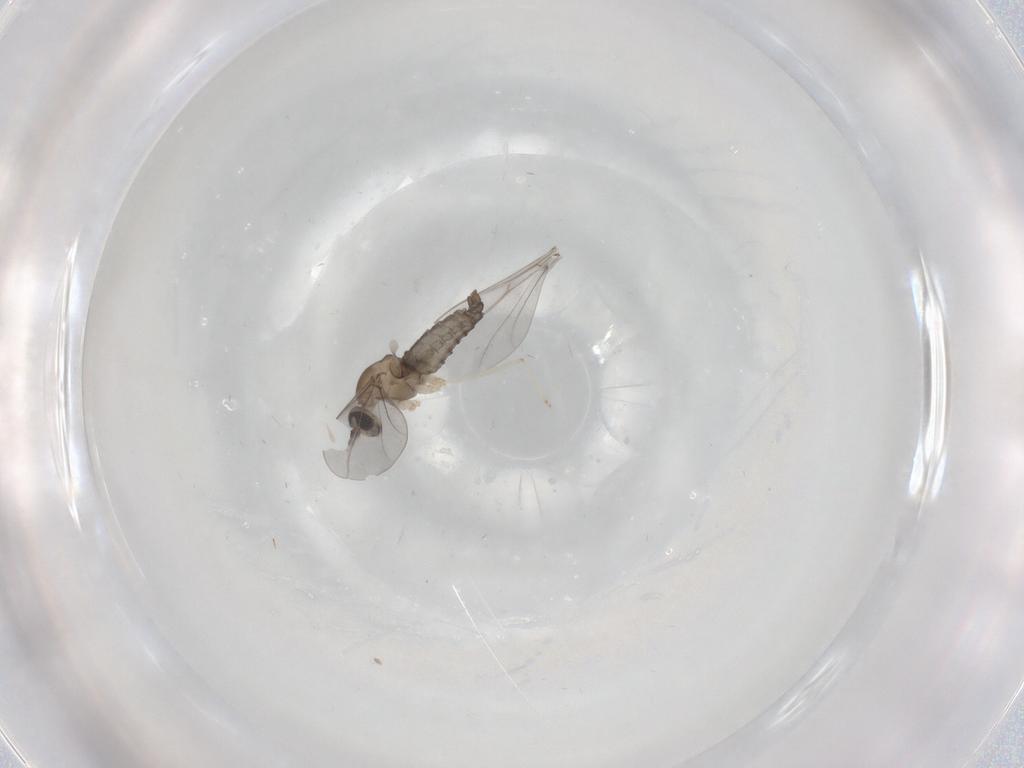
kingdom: Animalia
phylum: Arthropoda
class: Insecta
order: Diptera
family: Cecidomyiidae
